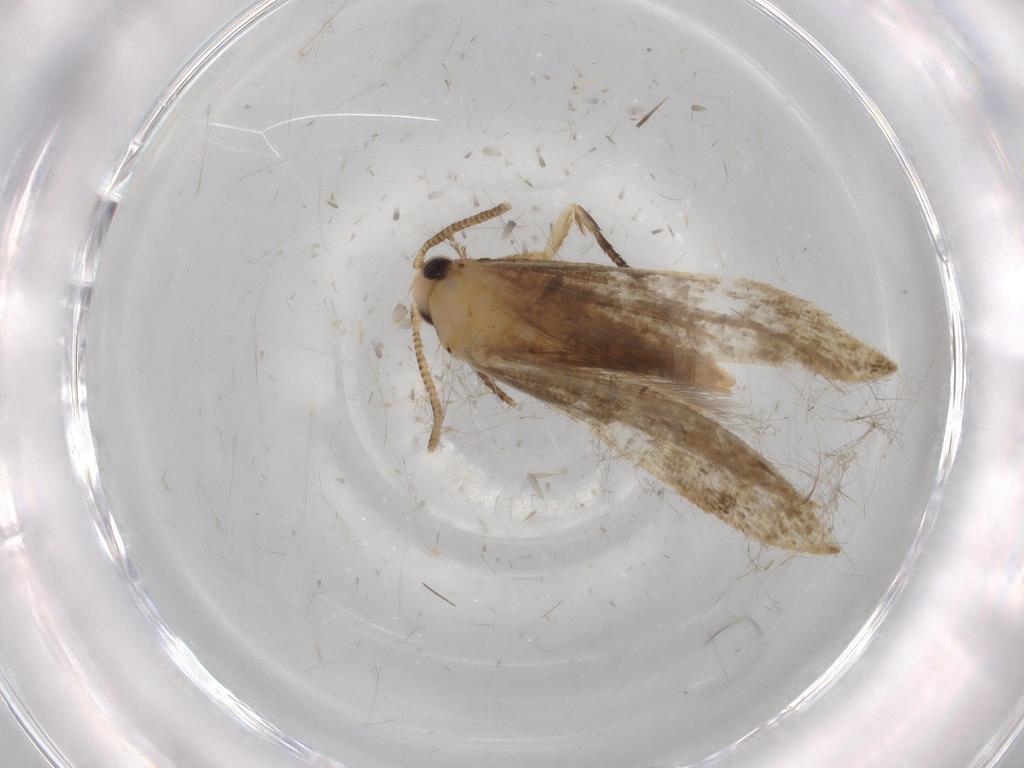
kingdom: Animalia
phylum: Arthropoda
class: Insecta
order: Lepidoptera
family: Tineidae
